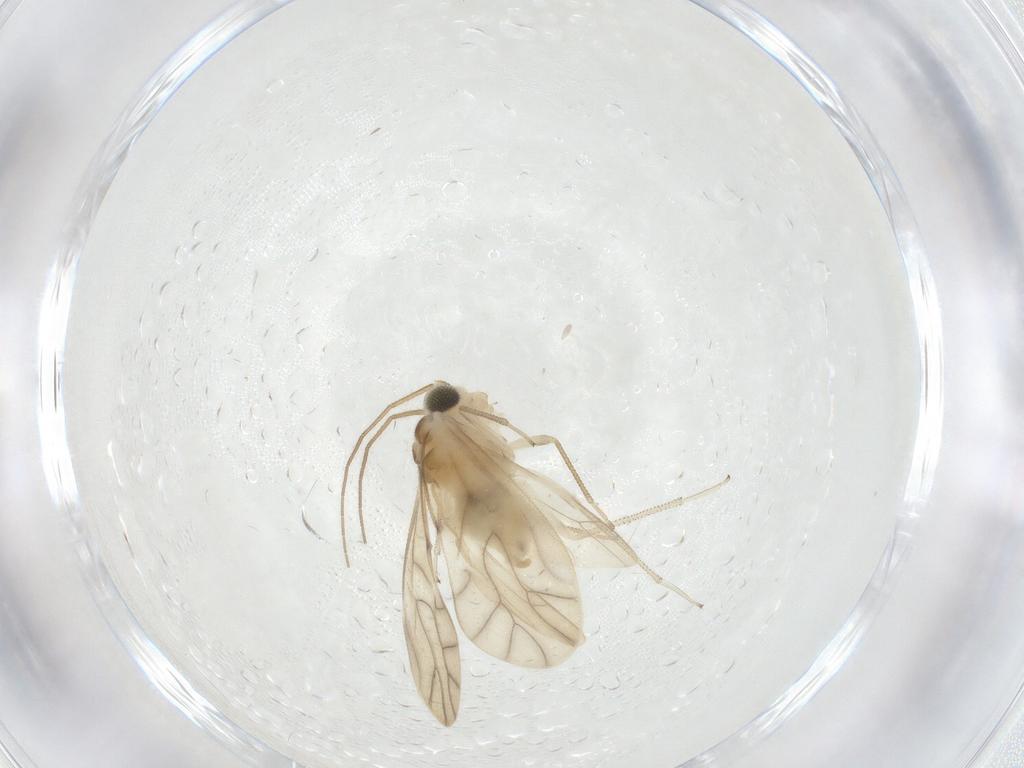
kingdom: Animalia
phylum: Arthropoda
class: Insecta
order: Psocodea
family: Caeciliusidae
